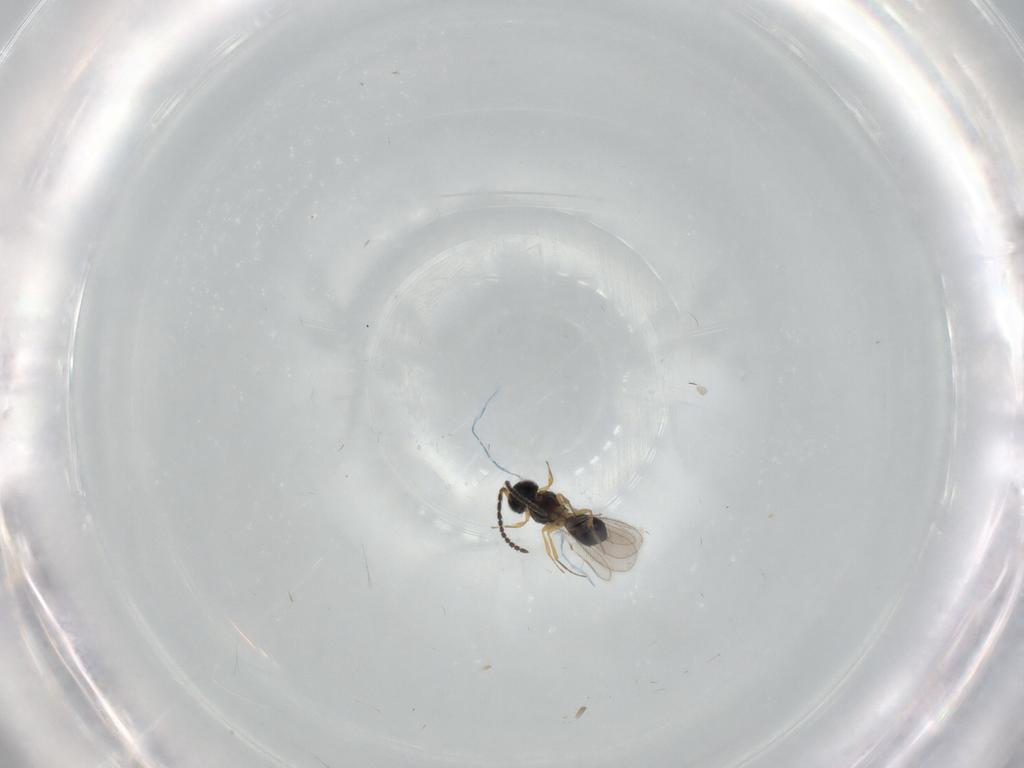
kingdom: Animalia
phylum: Arthropoda
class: Insecta
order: Hymenoptera
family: Scelionidae
